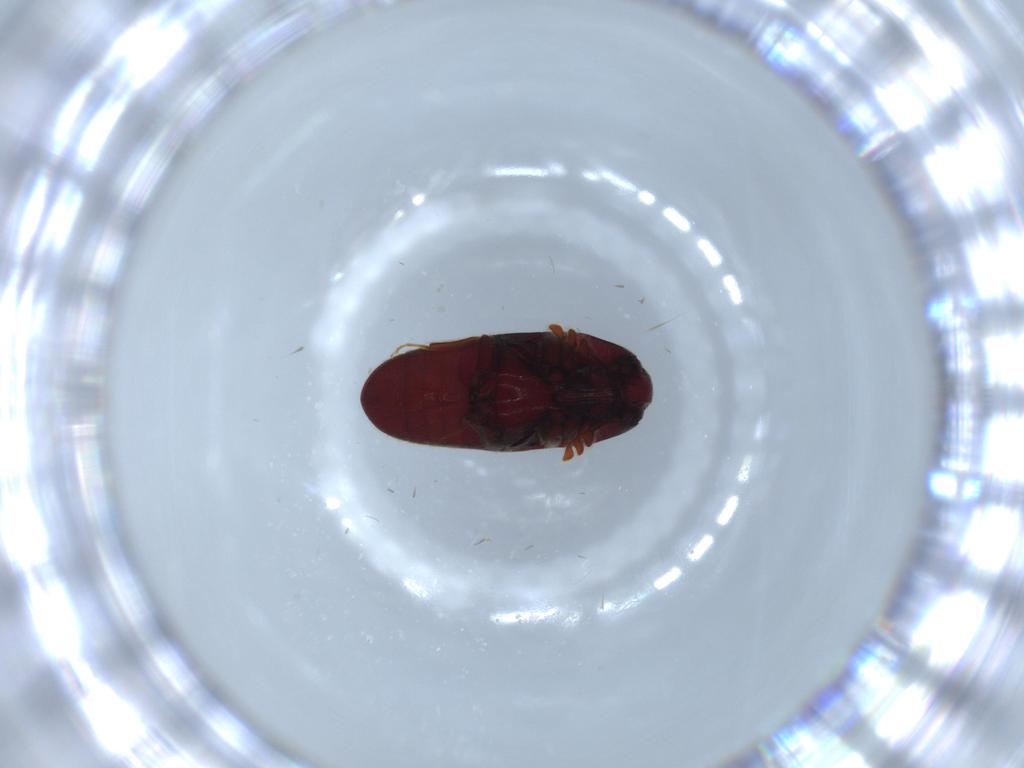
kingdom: Animalia
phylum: Arthropoda
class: Insecta
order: Coleoptera
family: Throscidae
